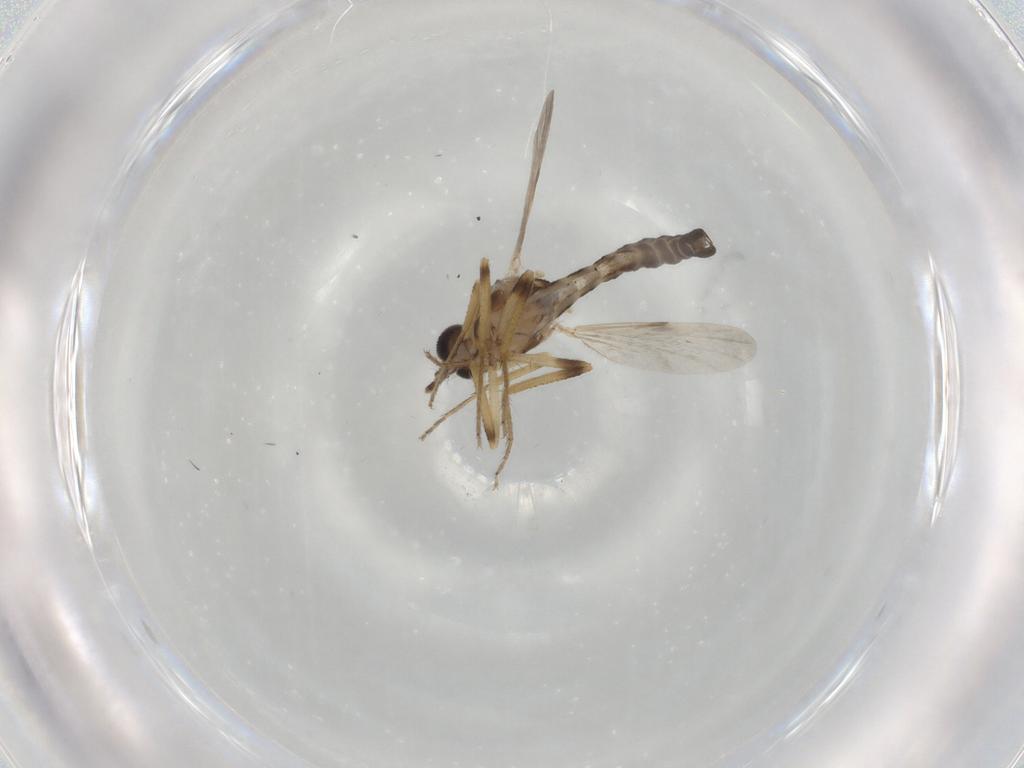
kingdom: Animalia
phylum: Arthropoda
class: Insecta
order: Diptera
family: Ceratopogonidae
